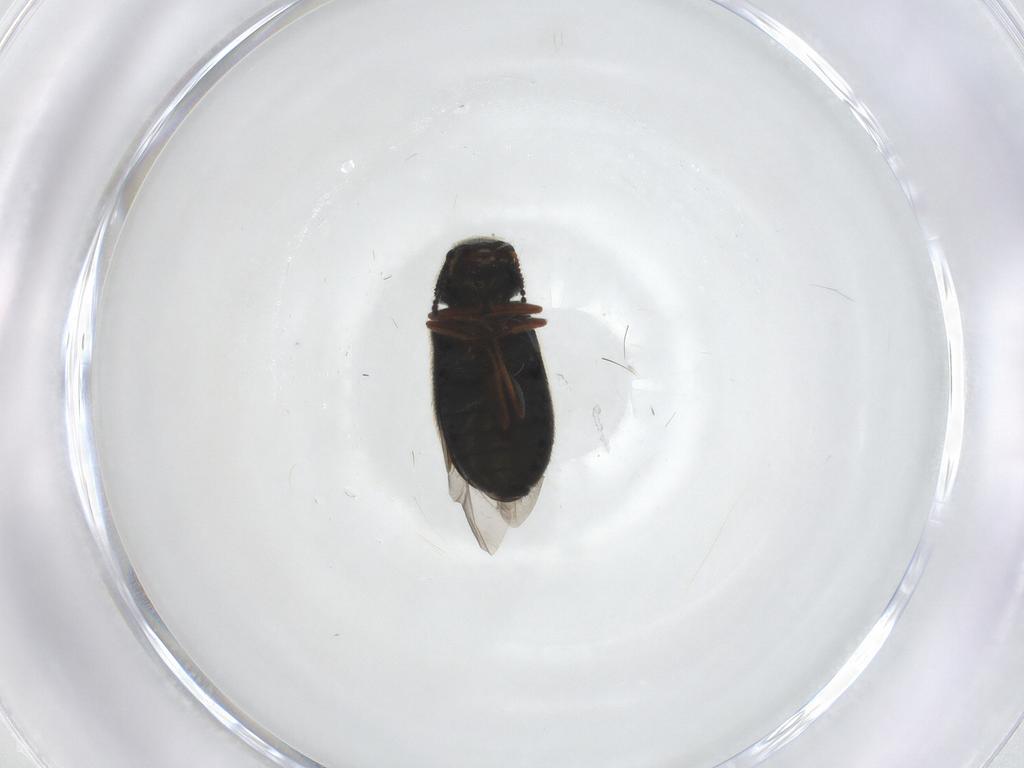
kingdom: Animalia
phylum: Arthropoda
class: Insecta
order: Coleoptera
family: Melyridae
